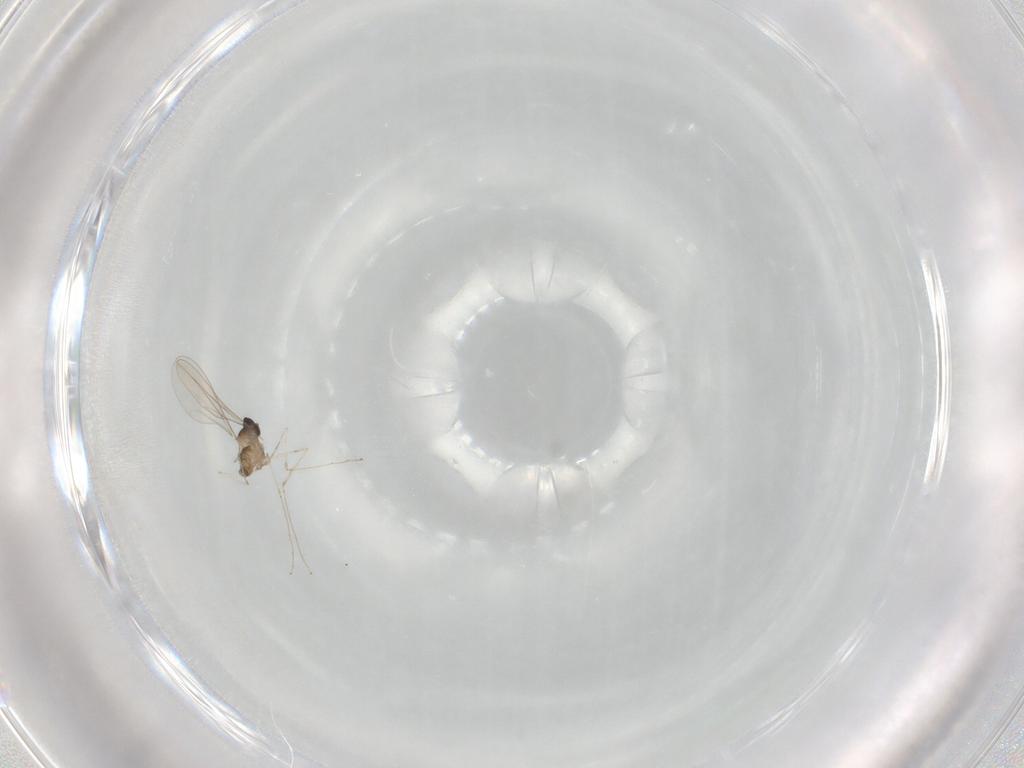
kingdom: Animalia
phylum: Arthropoda
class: Insecta
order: Diptera
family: Cecidomyiidae
